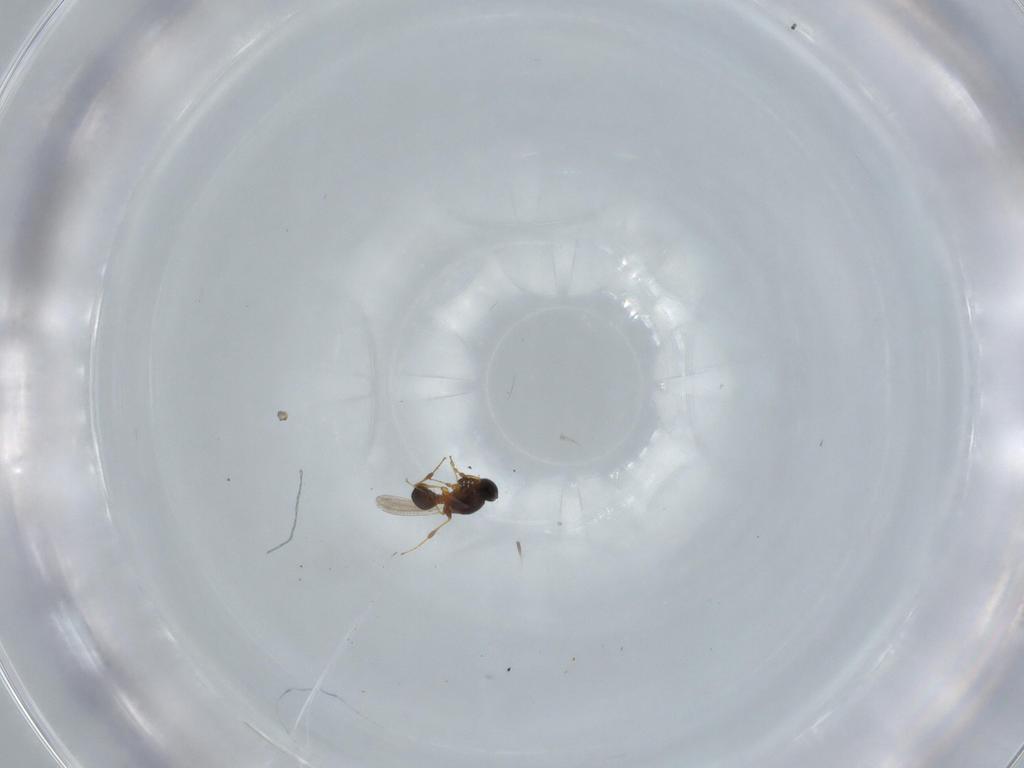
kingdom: Animalia
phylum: Arthropoda
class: Insecta
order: Hymenoptera
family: Platygastridae
